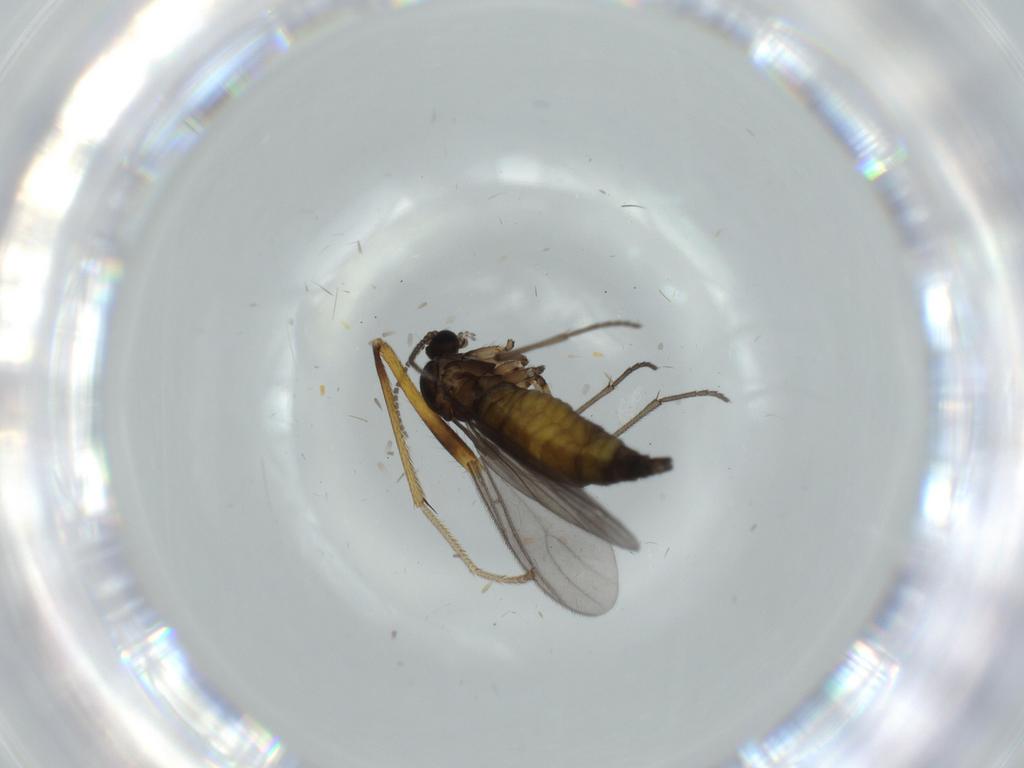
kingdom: Animalia
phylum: Arthropoda
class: Insecta
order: Diptera
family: Sciaridae
